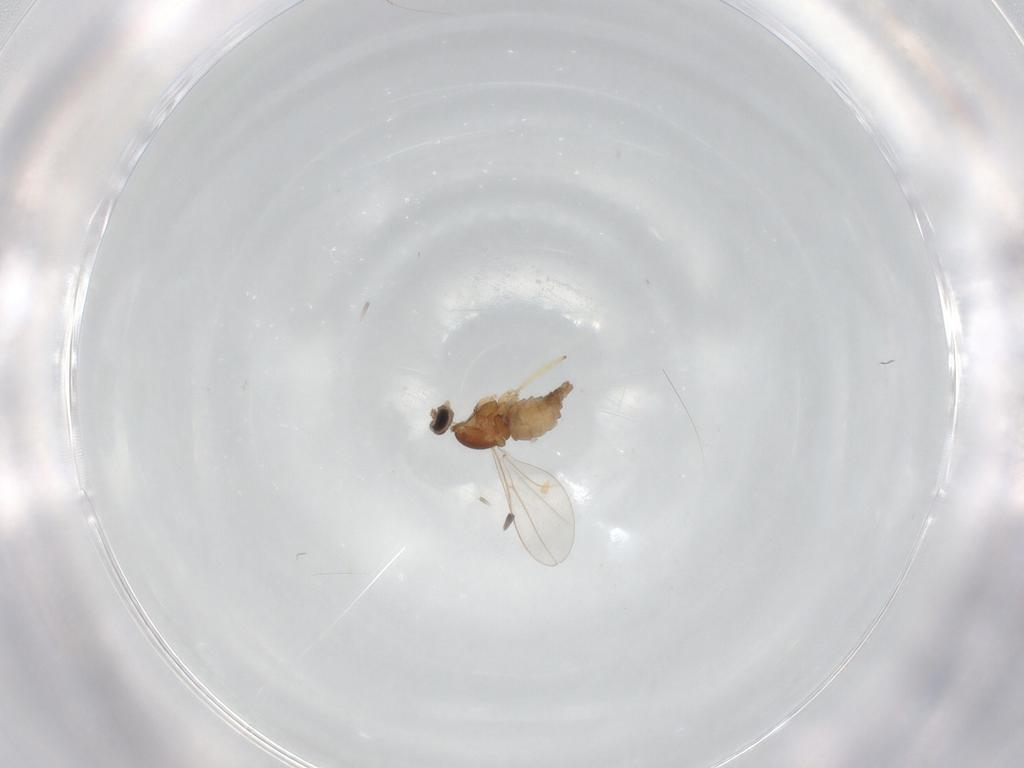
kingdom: Animalia
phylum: Arthropoda
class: Insecta
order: Diptera
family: Cecidomyiidae
